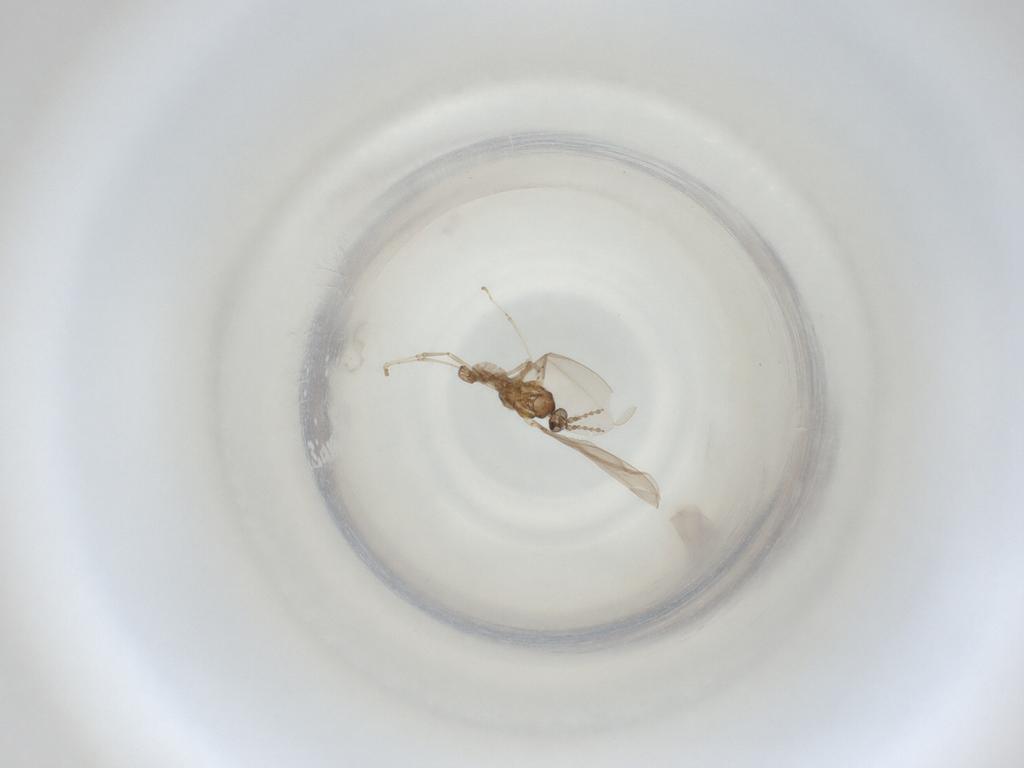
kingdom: Animalia
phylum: Arthropoda
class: Insecta
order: Diptera
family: Cecidomyiidae
